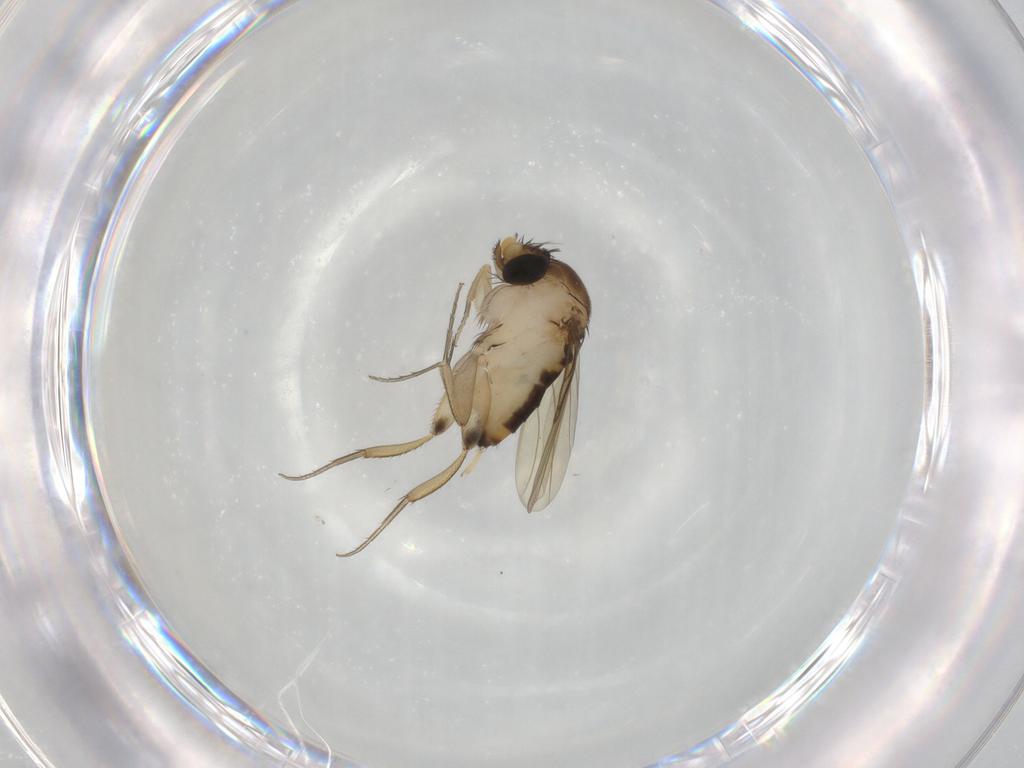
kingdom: Animalia
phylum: Arthropoda
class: Insecta
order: Diptera
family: Phoridae
